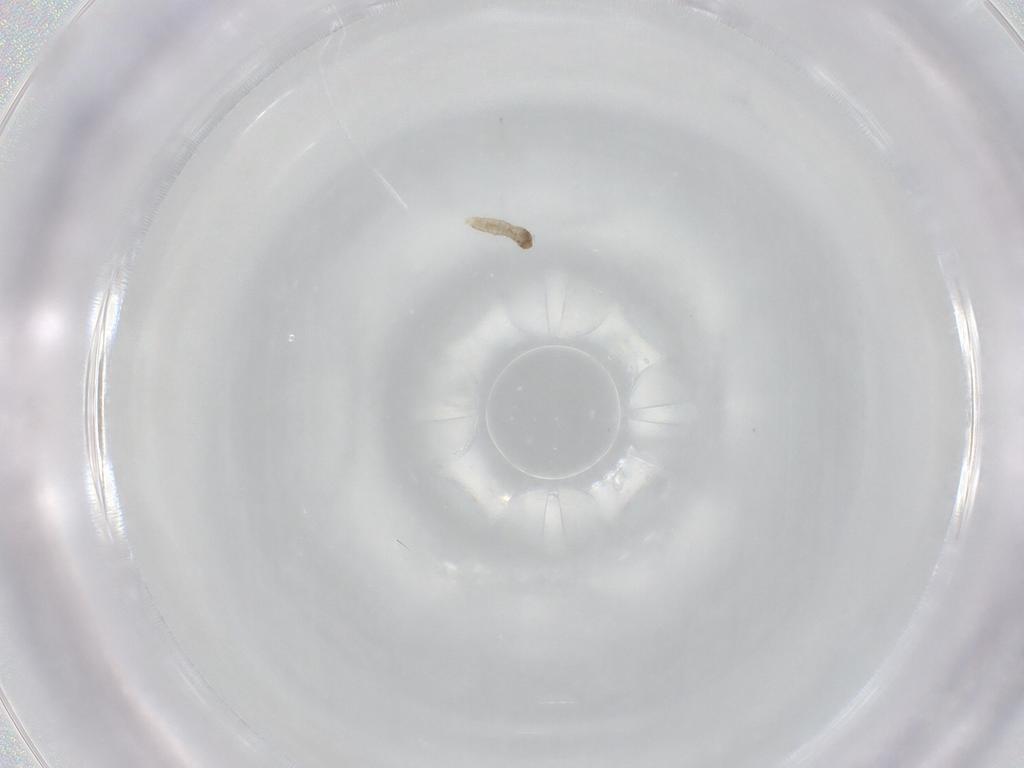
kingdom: Animalia
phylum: Arthropoda
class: Insecta
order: Lepidoptera
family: Tineidae
